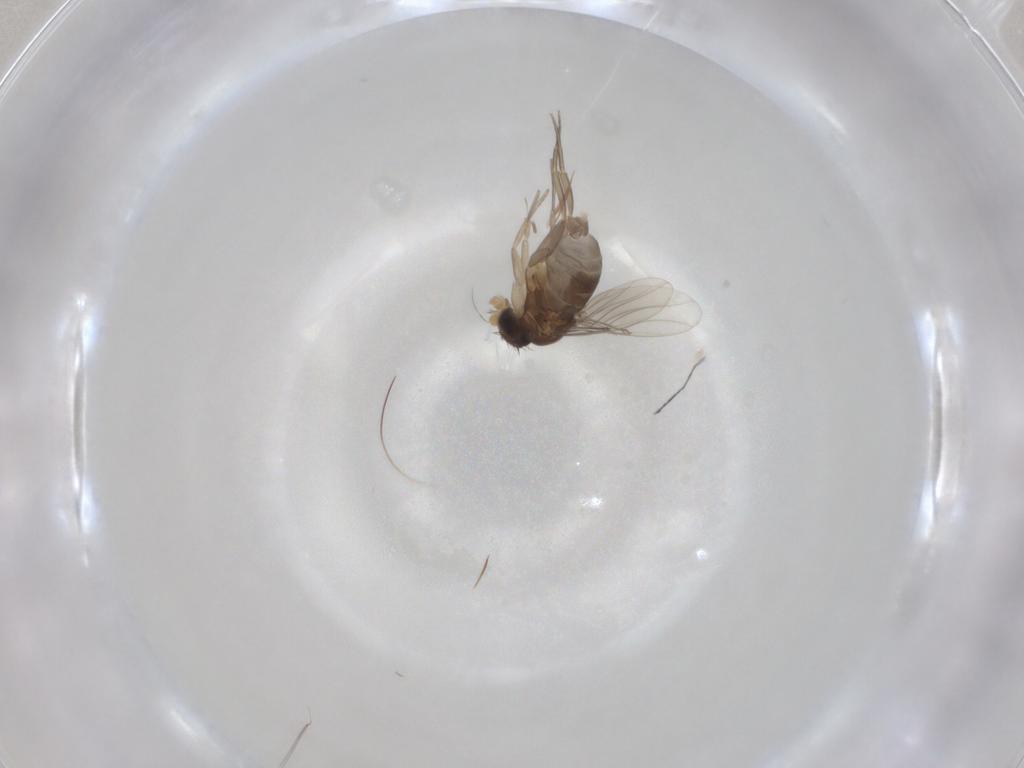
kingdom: Animalia
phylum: Arthropoda
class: Insecta
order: Diptera
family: Phoridae
